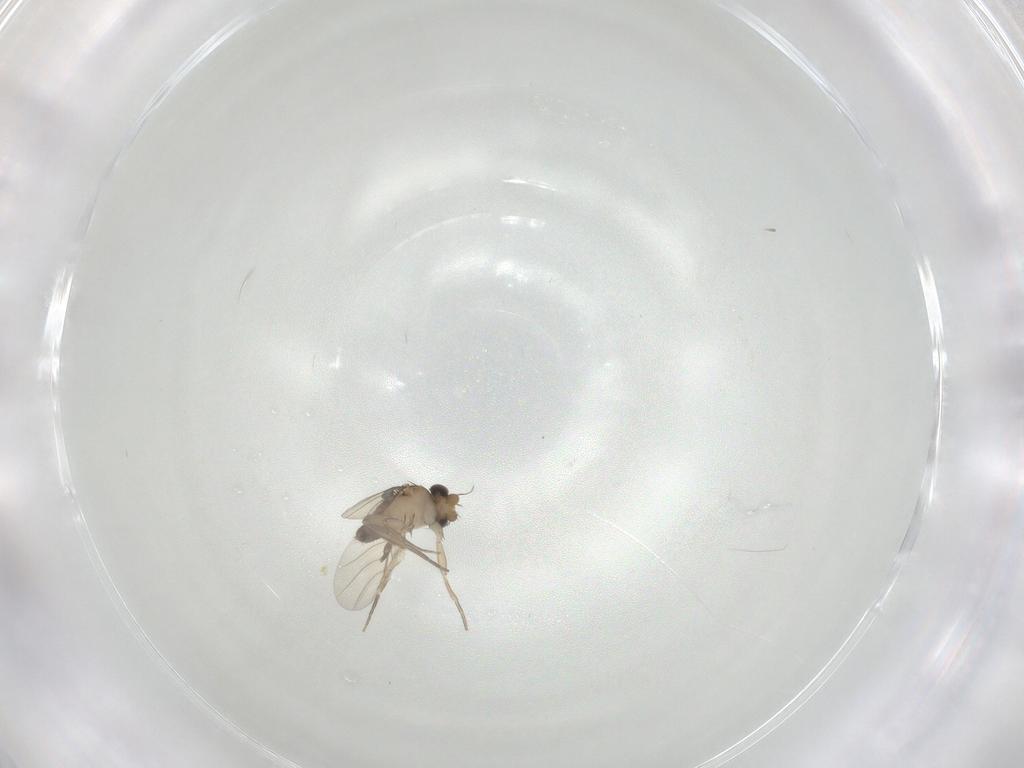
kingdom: Animalia
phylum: Arthropoda
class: Insecta
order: Diptera
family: Phoridae
